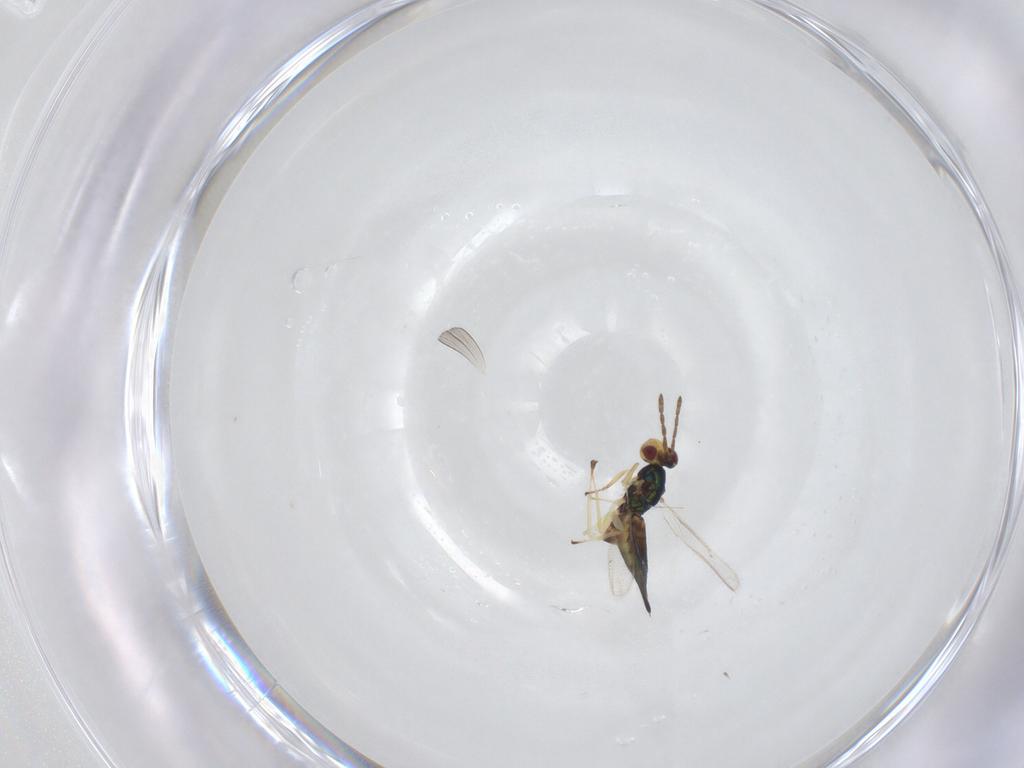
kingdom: Animalia
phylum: Arthropoda
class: Insecta
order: Hymenoptera
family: Eulophidae
